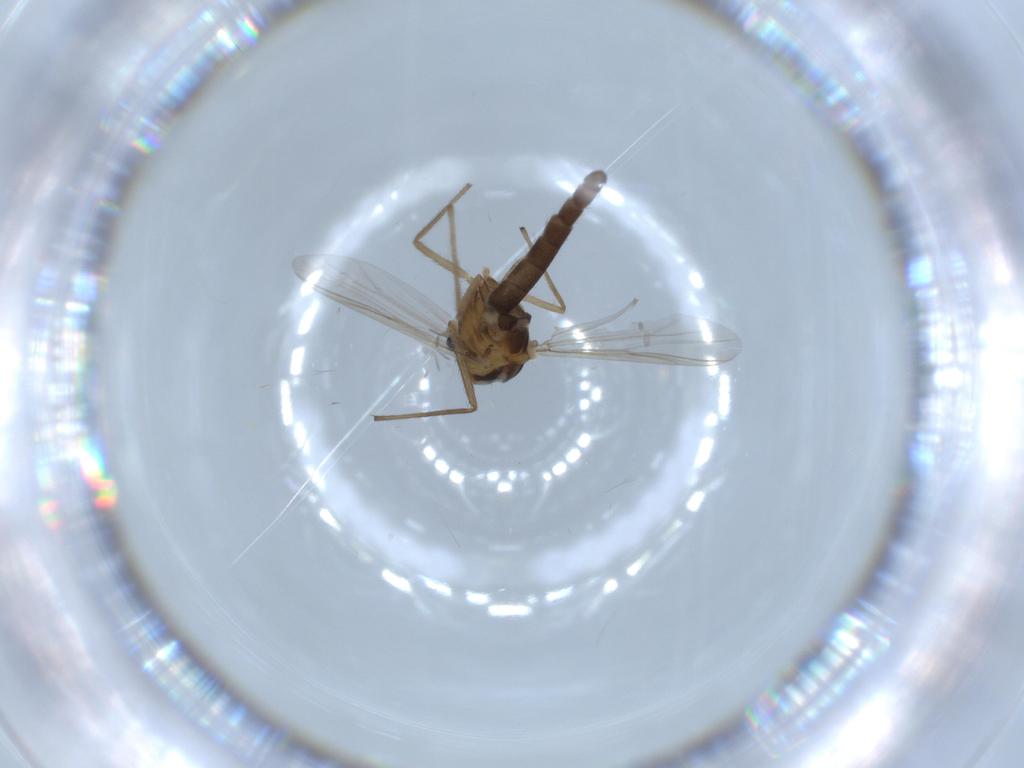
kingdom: Animalia
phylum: Arthropoda
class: Insecta
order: Diptera
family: Chironomidae
